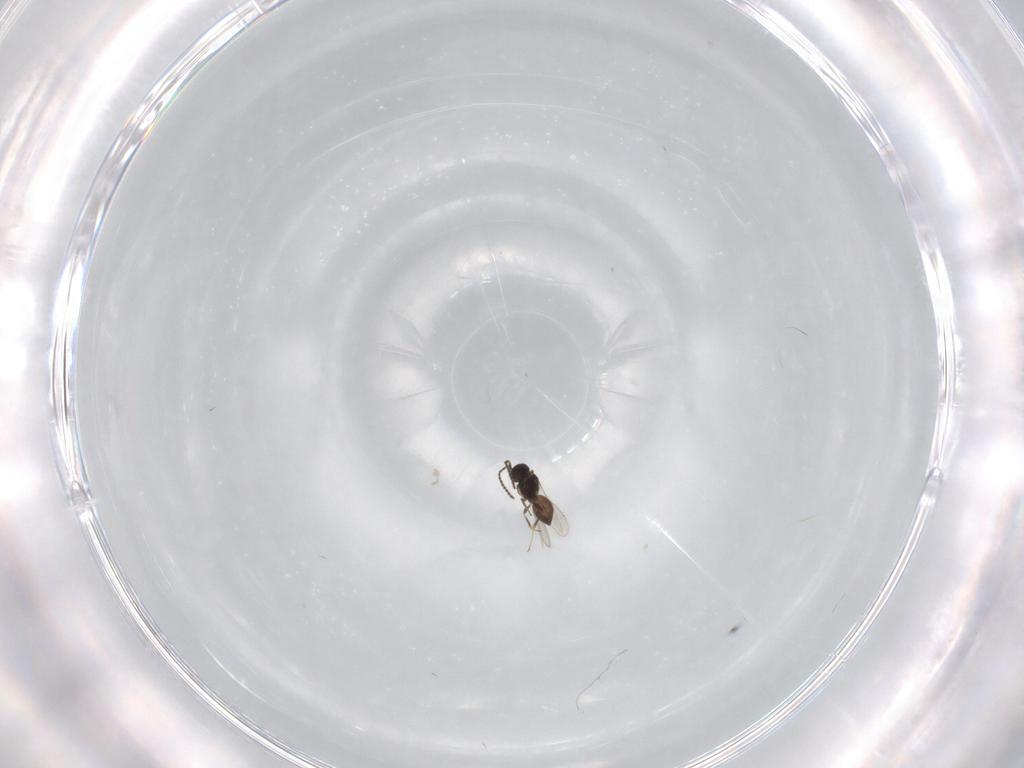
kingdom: Animalia
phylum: Arthropoda
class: Insecta
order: Hymenoptera
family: Scelionidae
